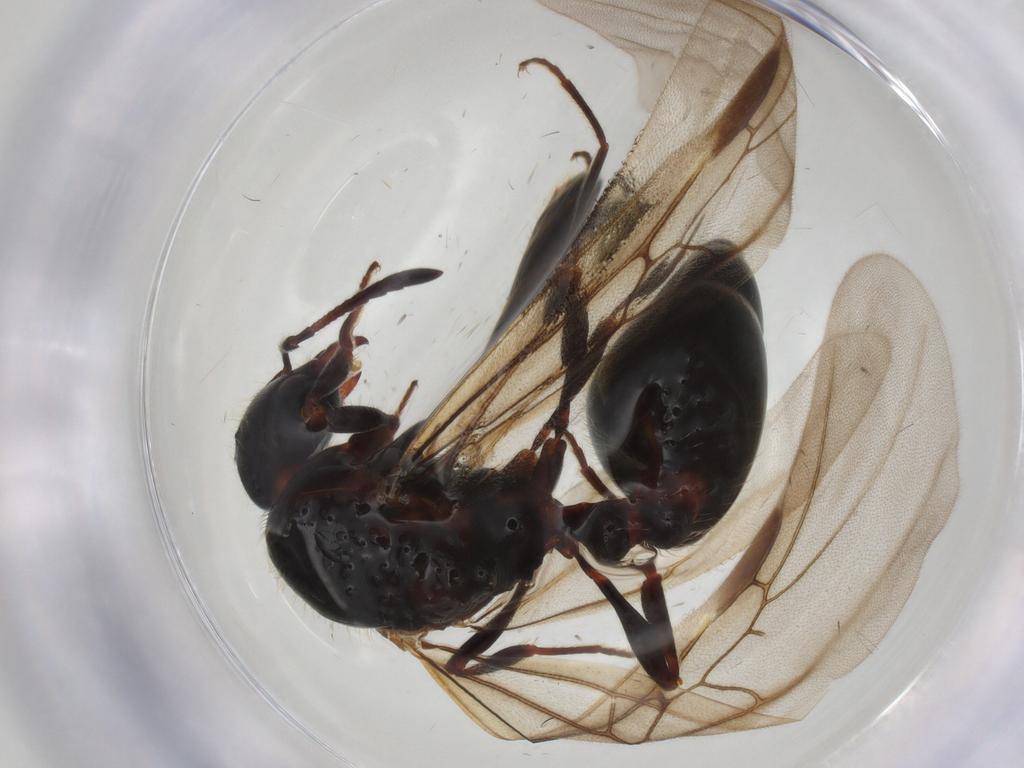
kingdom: Animalia
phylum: Arthropoda
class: Insecta
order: Hymenoptera
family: Formicidae
